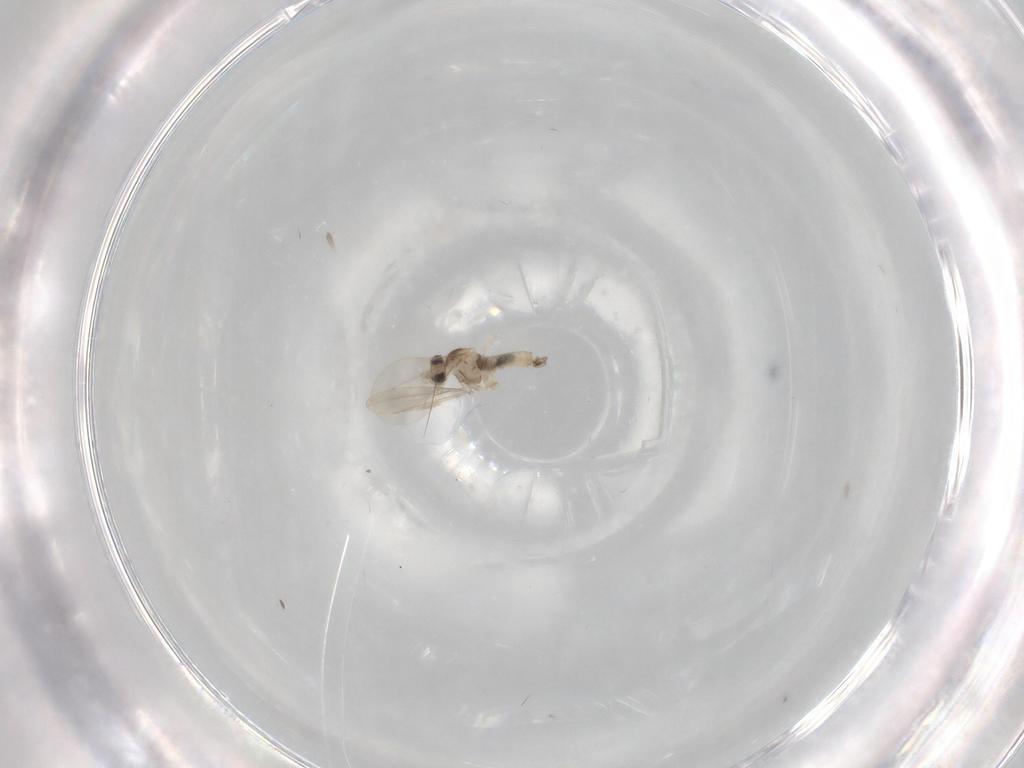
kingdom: Animalia
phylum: Arthropoda
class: Insecta
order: Diptera
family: Cecidomyiidae
